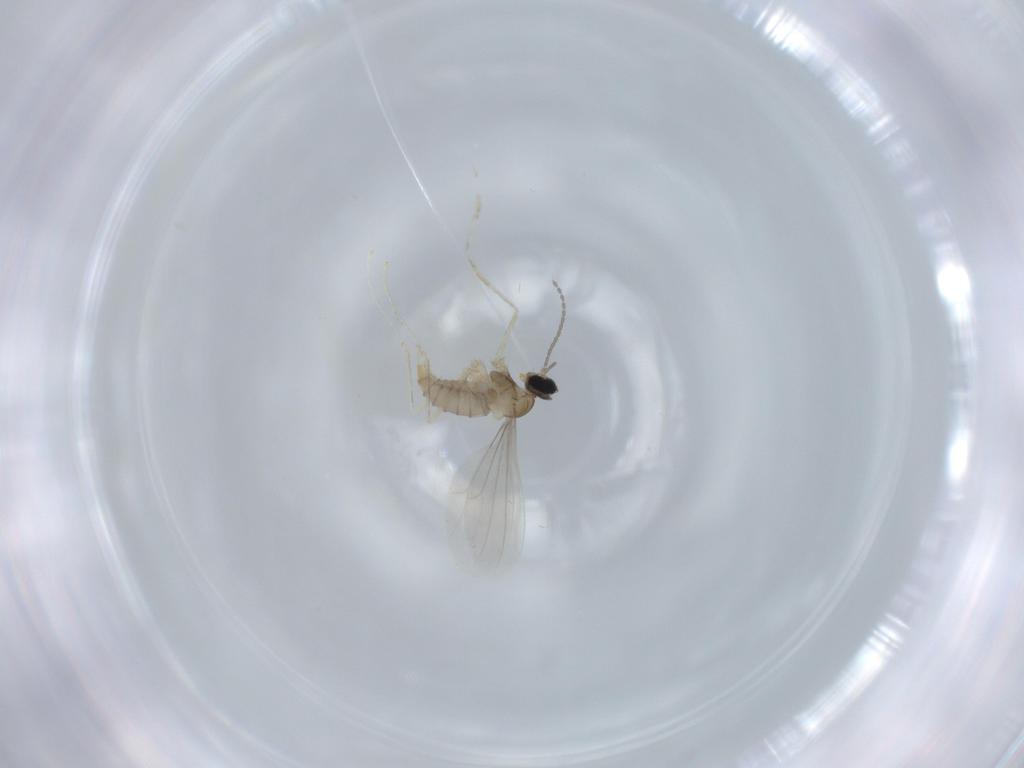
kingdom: Animalia
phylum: Arthropoda
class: Insecta
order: Diptera
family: Cecidomyiidae
